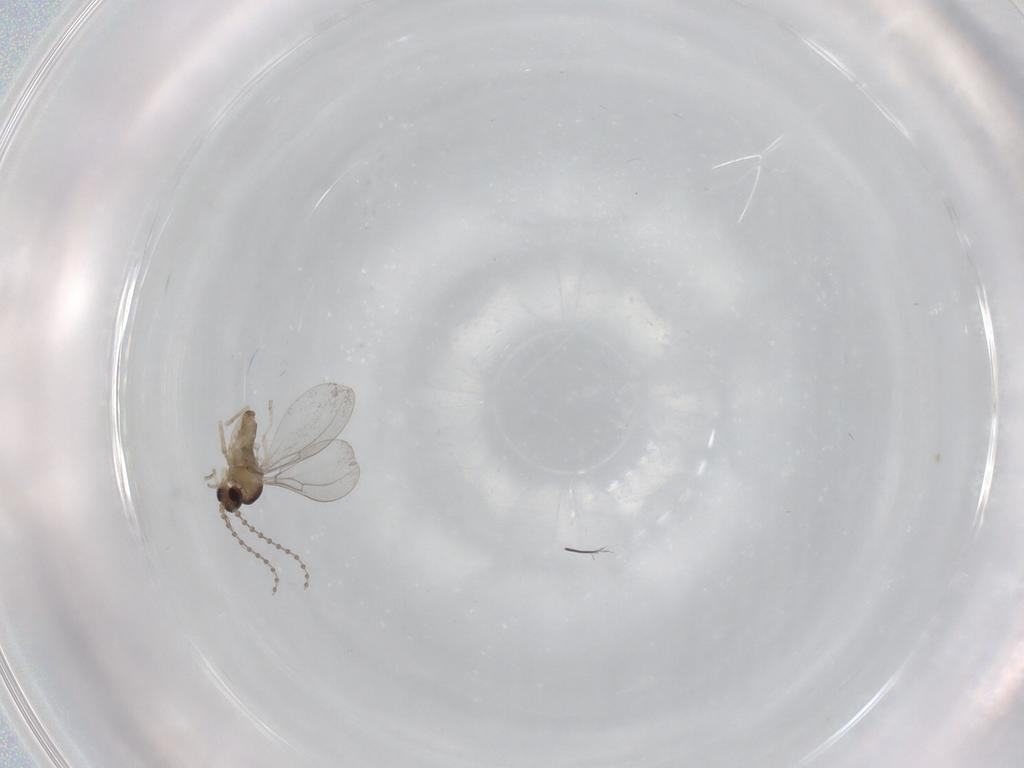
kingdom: Animalia
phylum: Arthropoda
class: Insecta
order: Diptera
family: Cecidomyiidae
